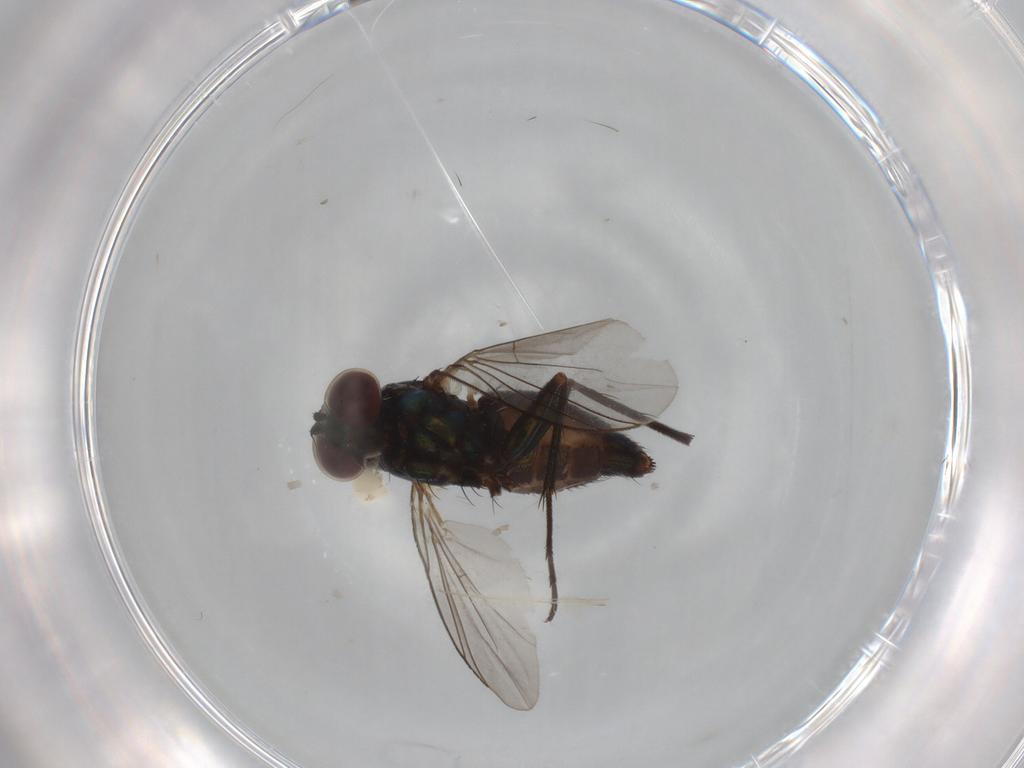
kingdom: Animalia
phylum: Arthropoda
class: Insecta
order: Diptera
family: Dolichopodidae
